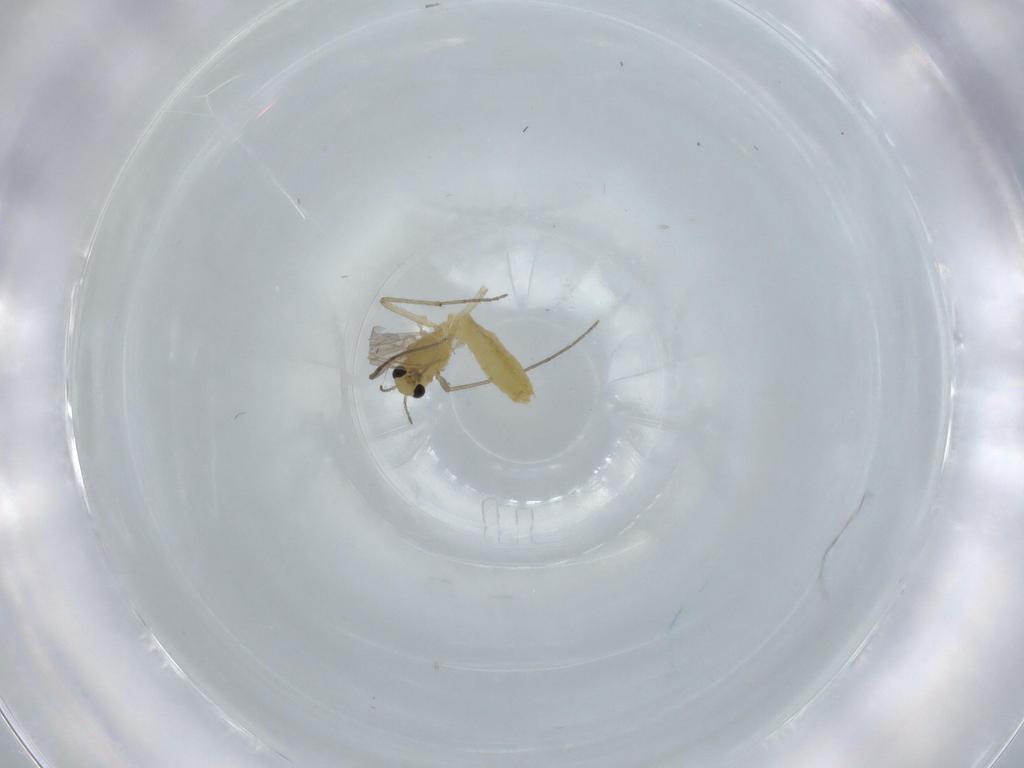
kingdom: Animalia
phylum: Arthropoda
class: Insecta
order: Diptera
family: Chironomidae
